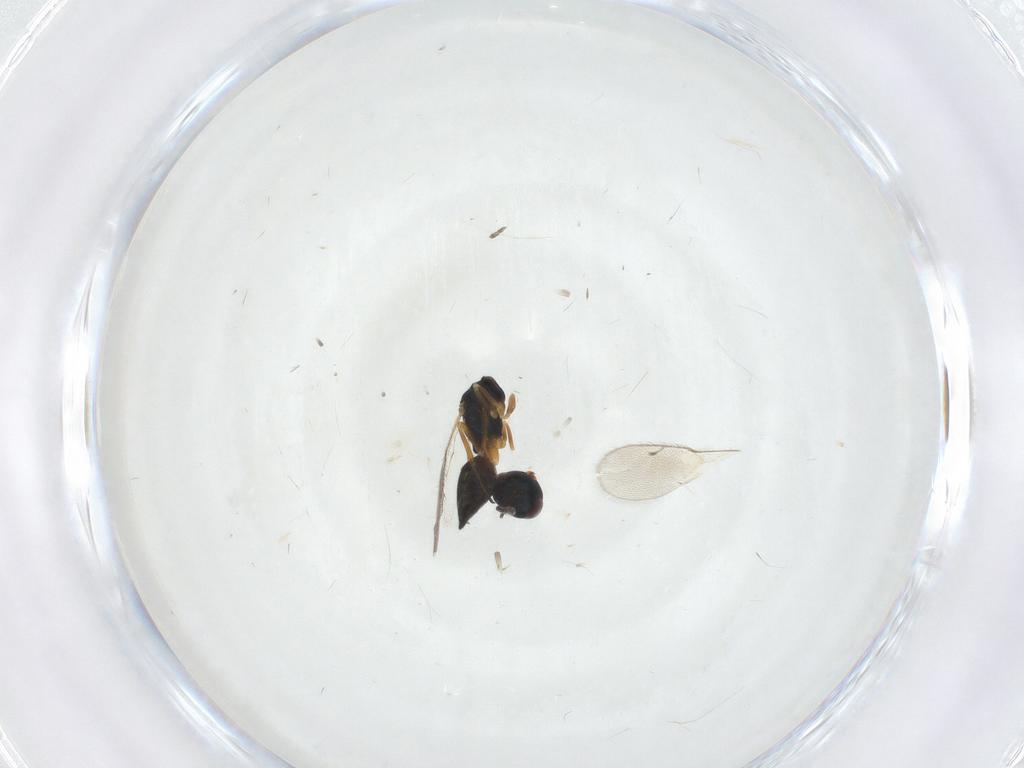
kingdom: Animalia
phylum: Arthropoda
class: Insecta
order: Hymenoptera
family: Pteromalidae
